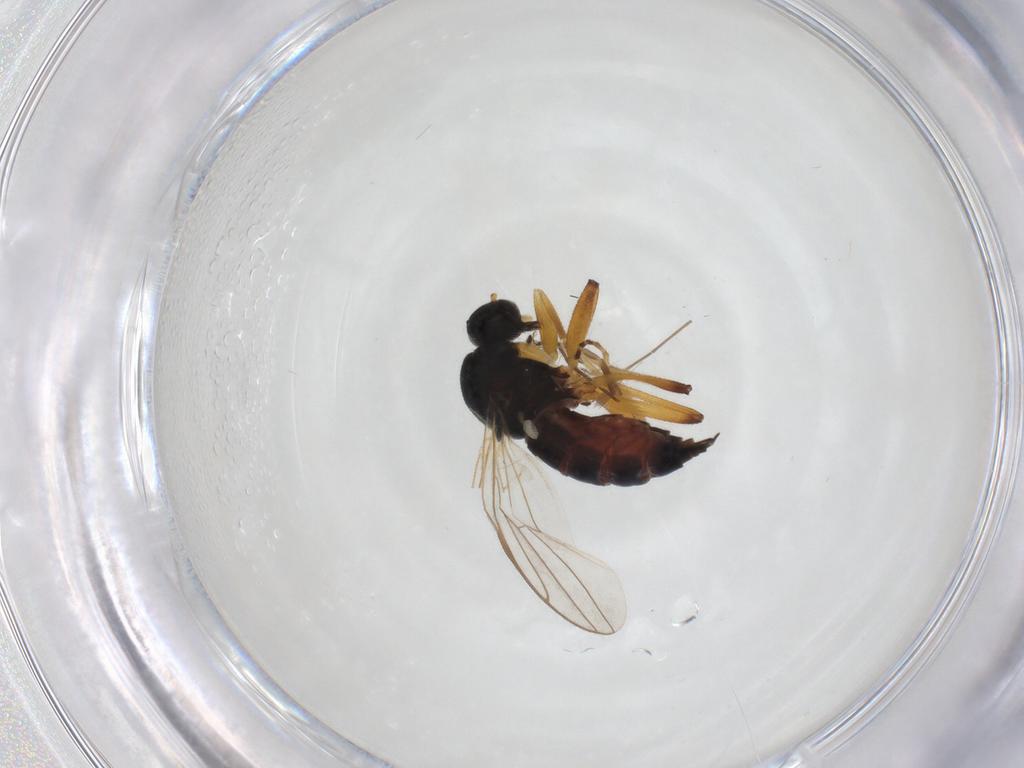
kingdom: Animalia
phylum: Arthropoda
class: Insecta
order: Diptera
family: Hybotidae
